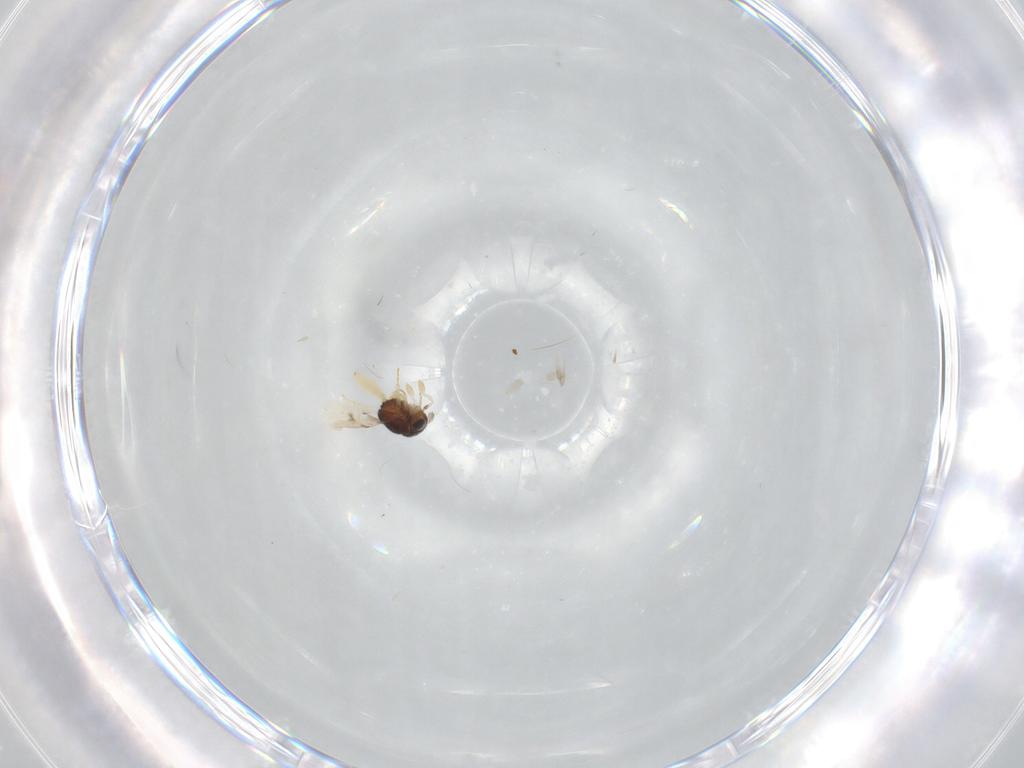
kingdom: Animalia
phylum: Arthropoda
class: Insecta
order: Hymenoptera
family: Scelionidae
